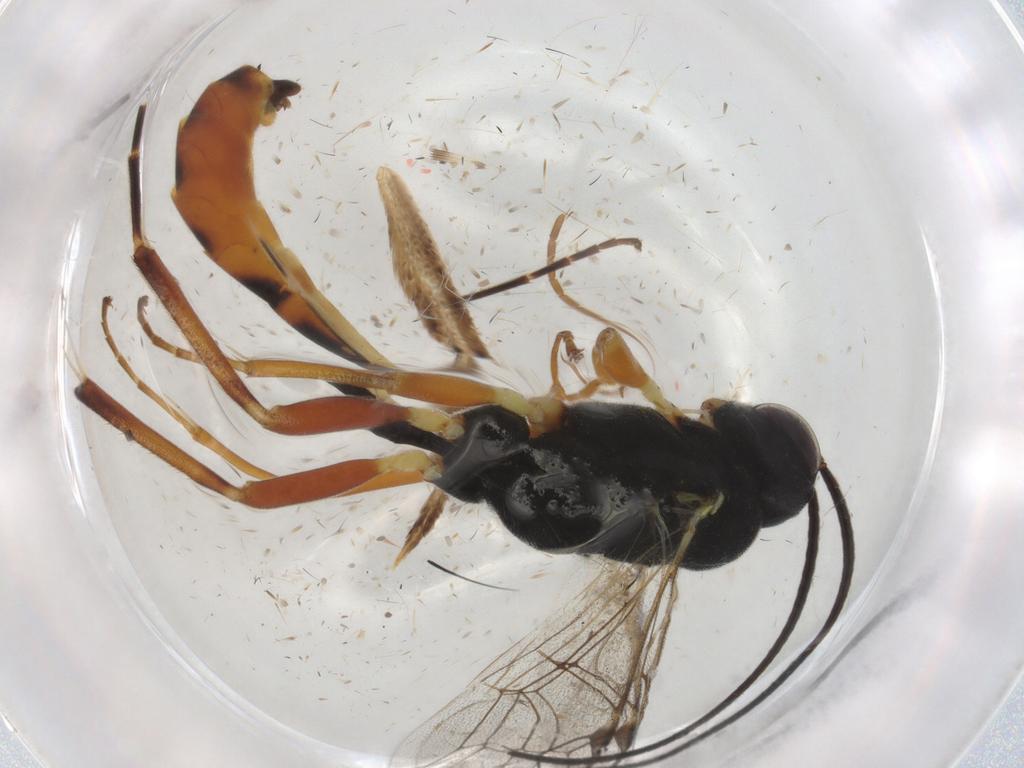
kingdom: Animalia
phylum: Arthropoda
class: Insecta
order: Hymenoptera
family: Ichneumonidae
